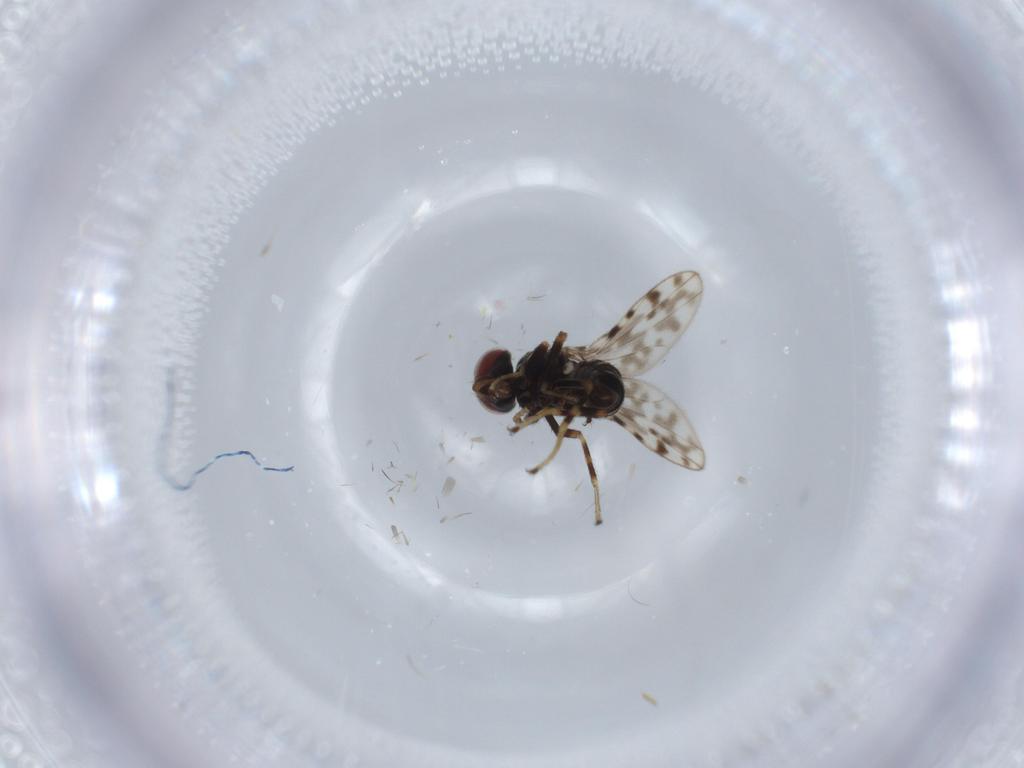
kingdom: Animalia
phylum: Arthropoda
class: Insecta
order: Diptera
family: Ephydridae
